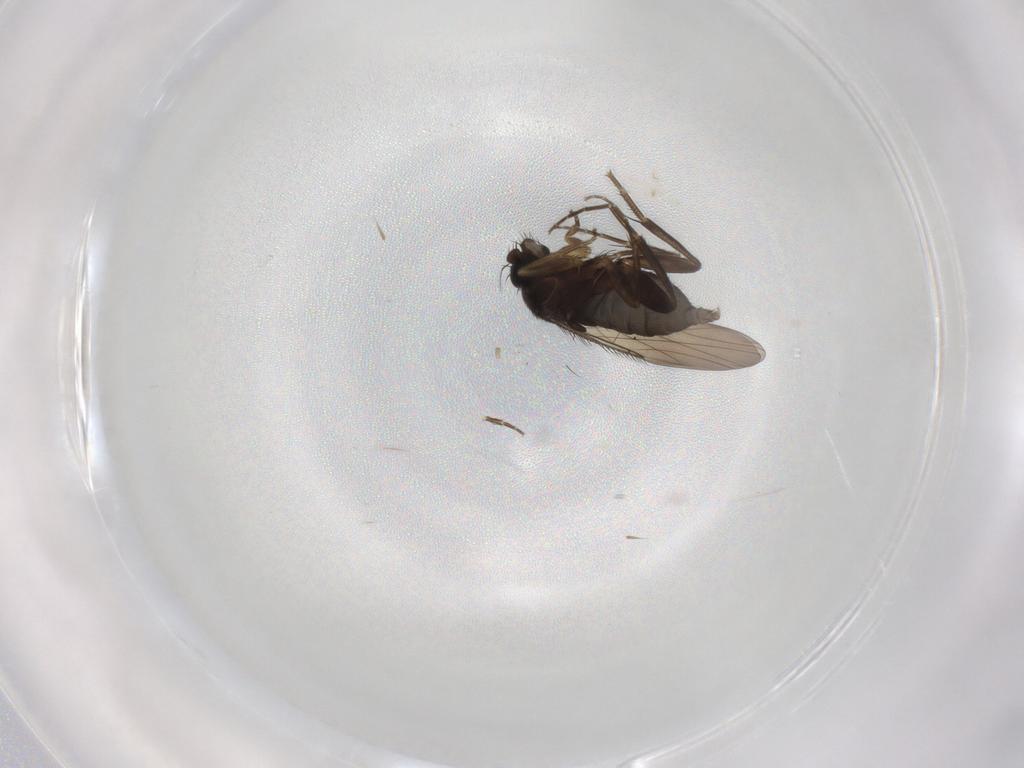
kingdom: Animalia
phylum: Arthropoda
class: Insecta
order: Diptera
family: Phoridae
